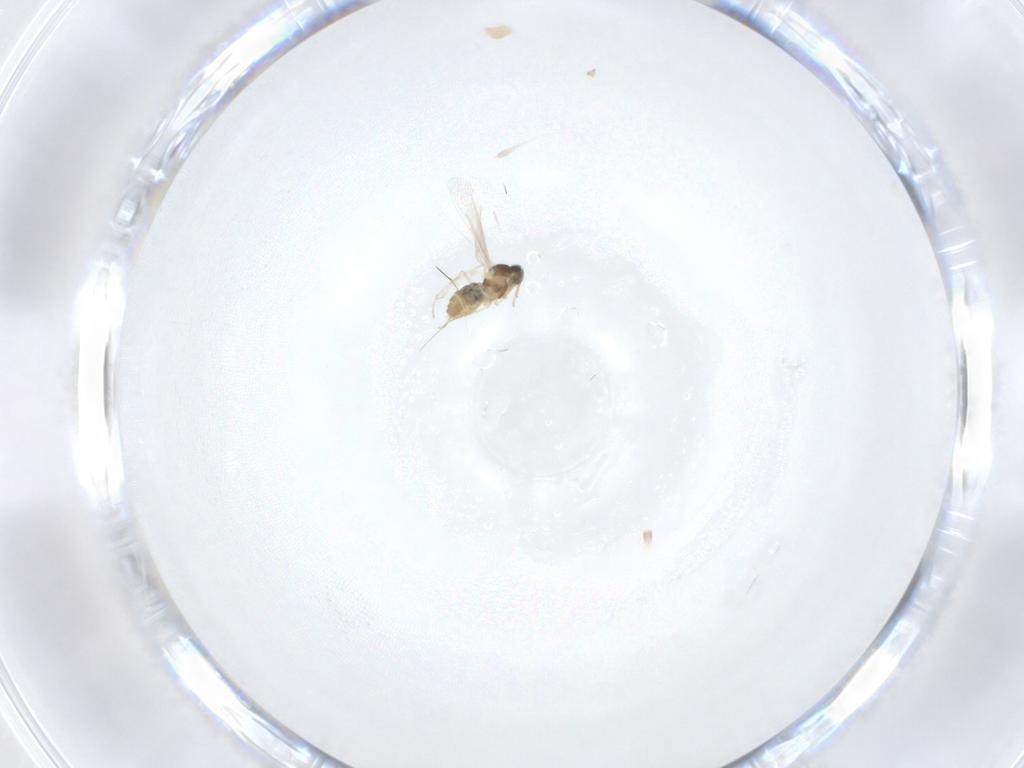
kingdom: Animalia
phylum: Arthropoda
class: Insecta
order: Diptera
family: Cecidomyiidae
